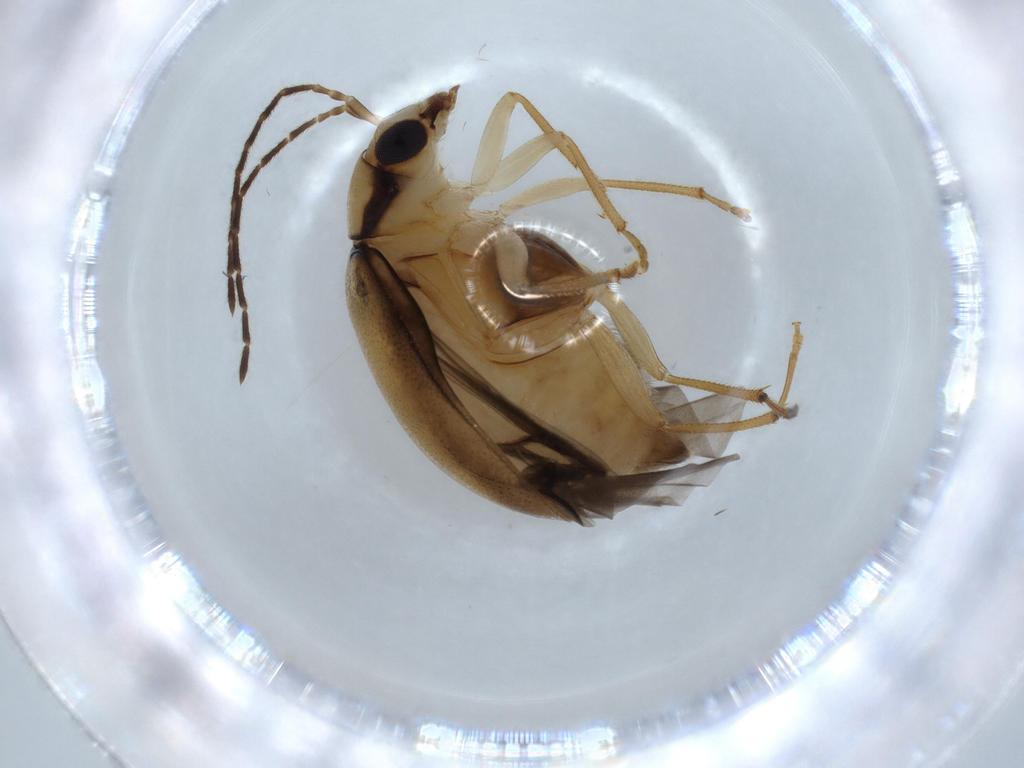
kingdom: Animalia
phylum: Arthropoda
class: Insecta
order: Coleoptera
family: Chrysomelidae
